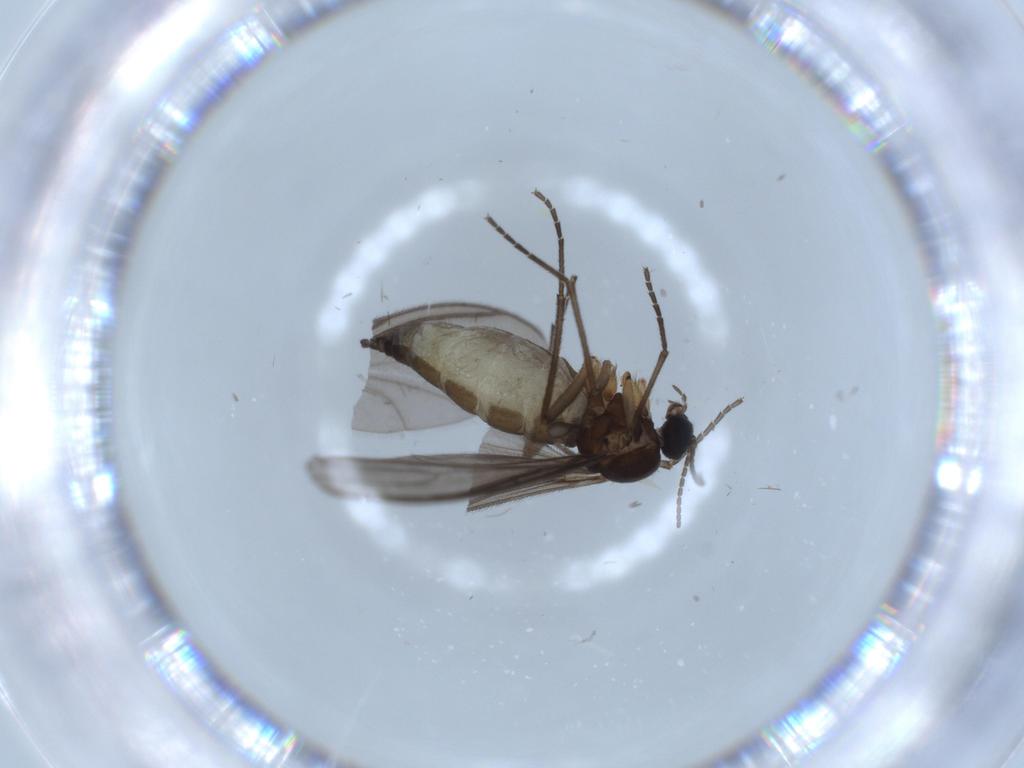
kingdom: Animalia
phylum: Arthropoda
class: Insecta
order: Diptera
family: Sciaridae
